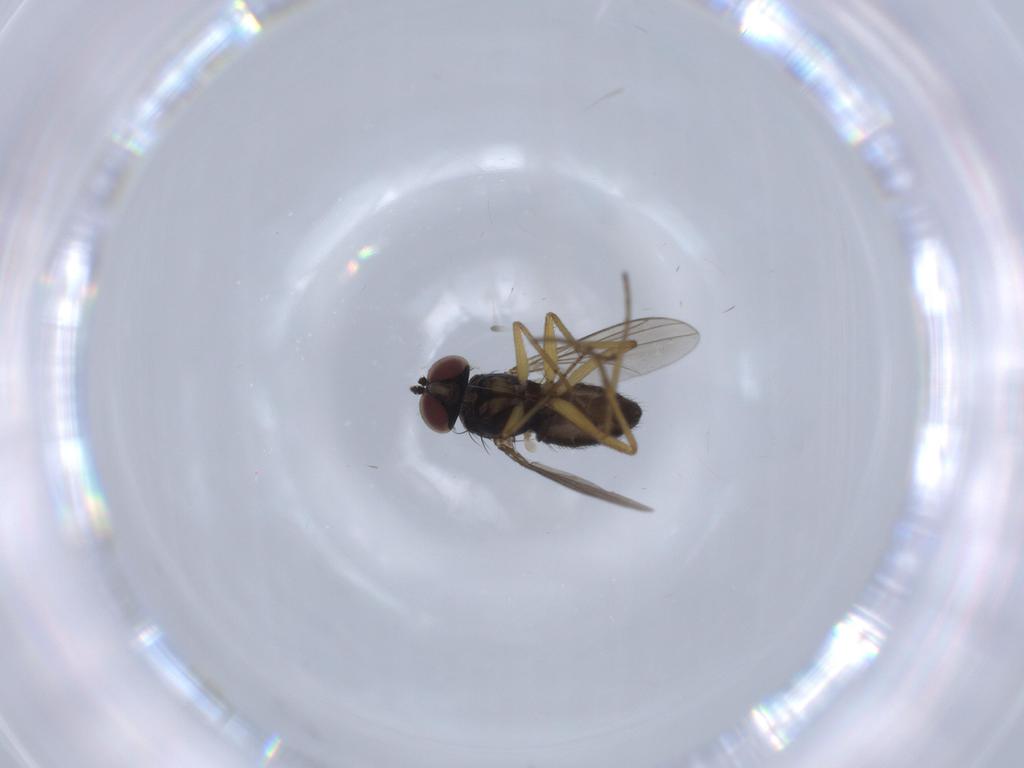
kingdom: Animalia
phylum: Arthropoda
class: Insecta
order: Diptera
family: Dolichopodidae
